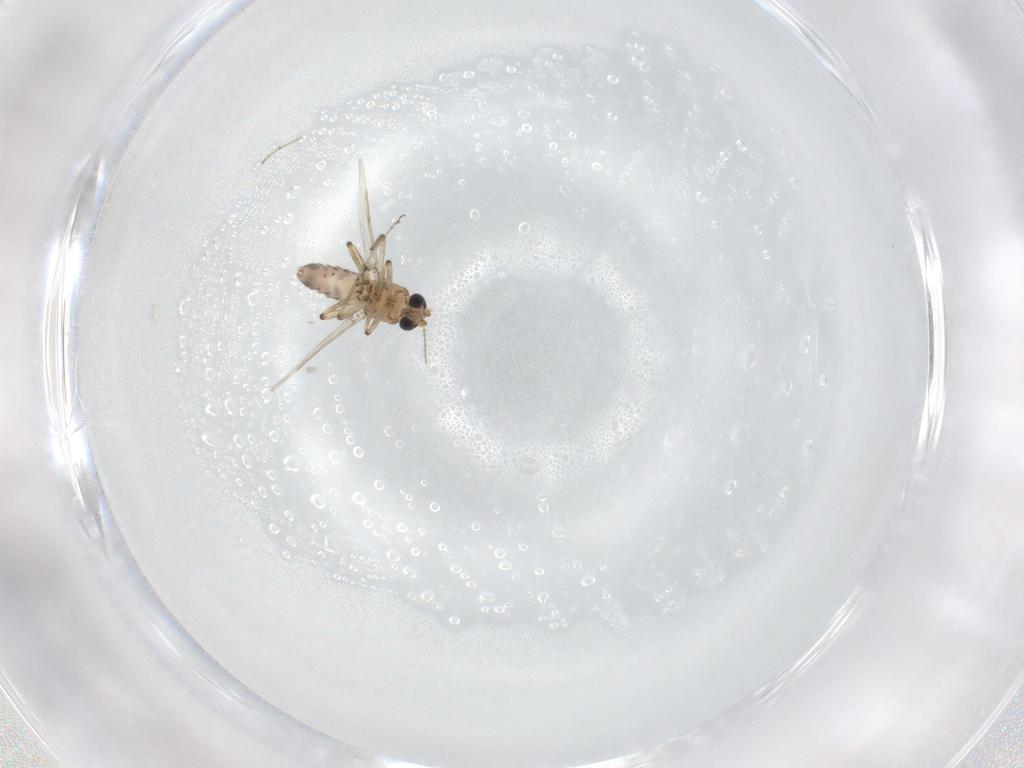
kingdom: Animalia
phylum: Arthropoda
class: Insecta
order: Diptera
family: Ceratopogonidae
